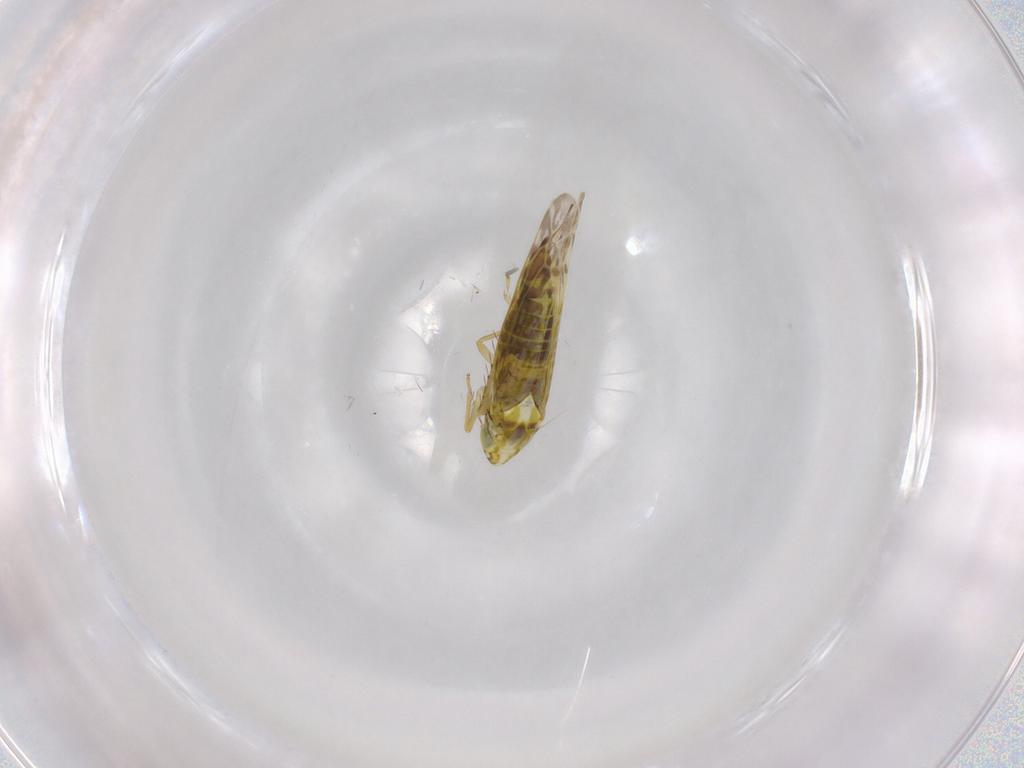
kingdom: Animalia
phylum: Arthropoda
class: Insecta
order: Hemiptera
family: Cicadellidae
